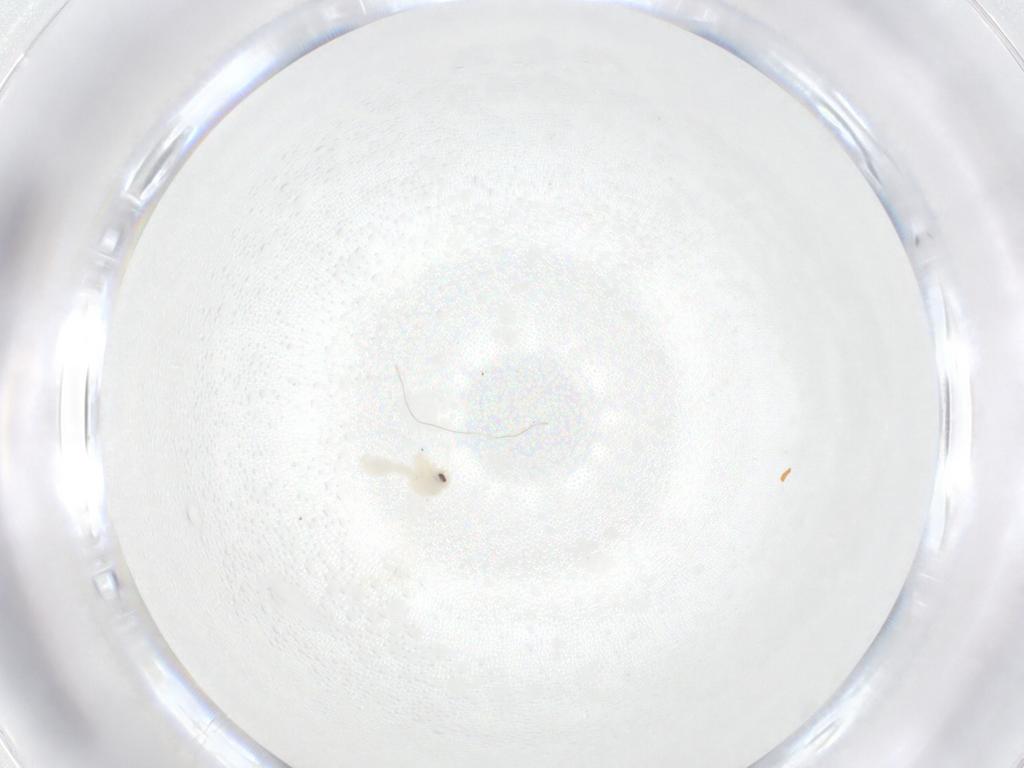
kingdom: Animalia
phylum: Arthropoda
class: Insecta
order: Hemiptera
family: Aleyrodidae
